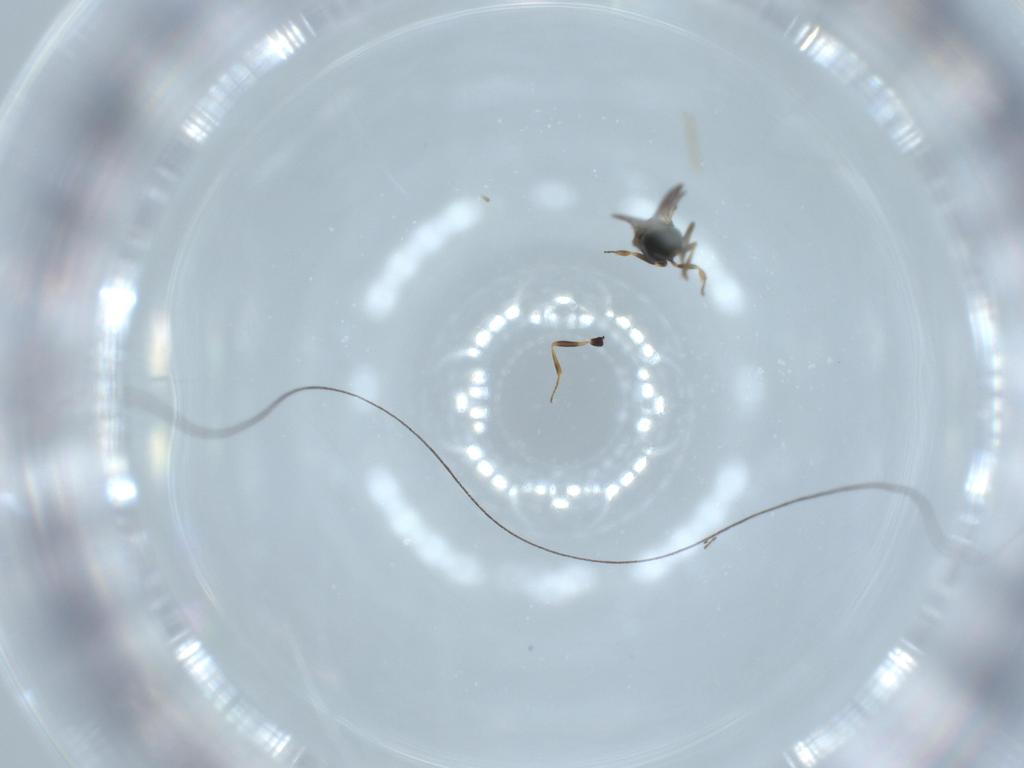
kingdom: Animalia
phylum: Arthropoda
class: Insecta
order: Hymenoptera
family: Scelionidae
